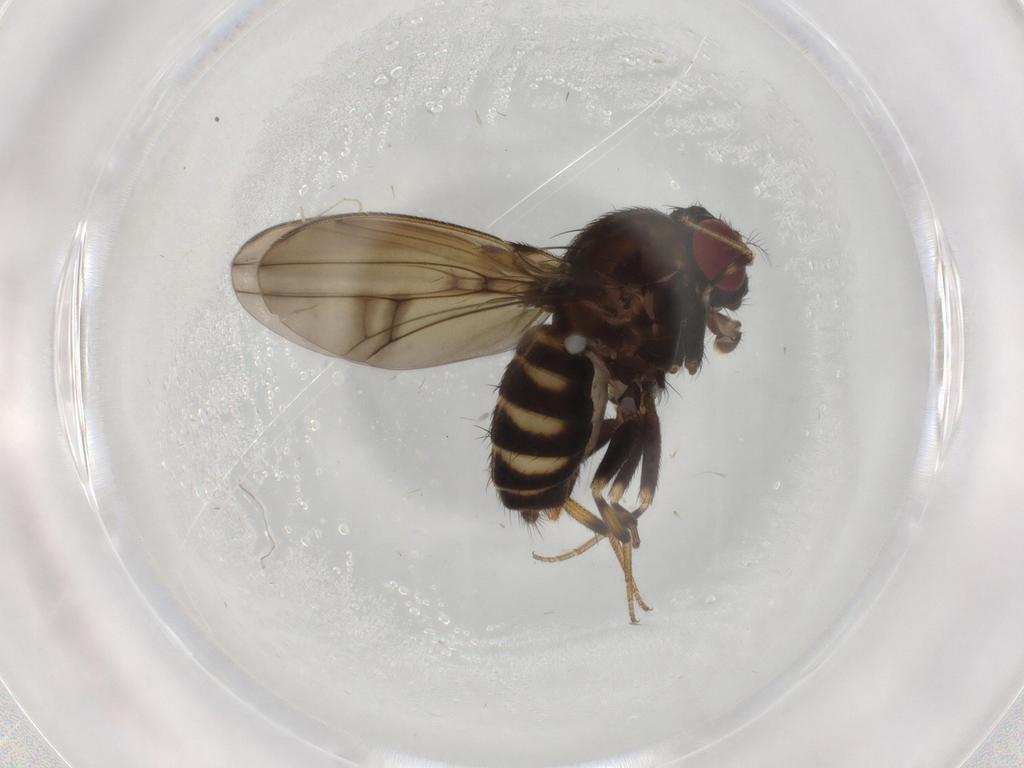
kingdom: Animalia
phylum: Arthropoda
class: Insecta
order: Diptera
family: Drosophilidae
